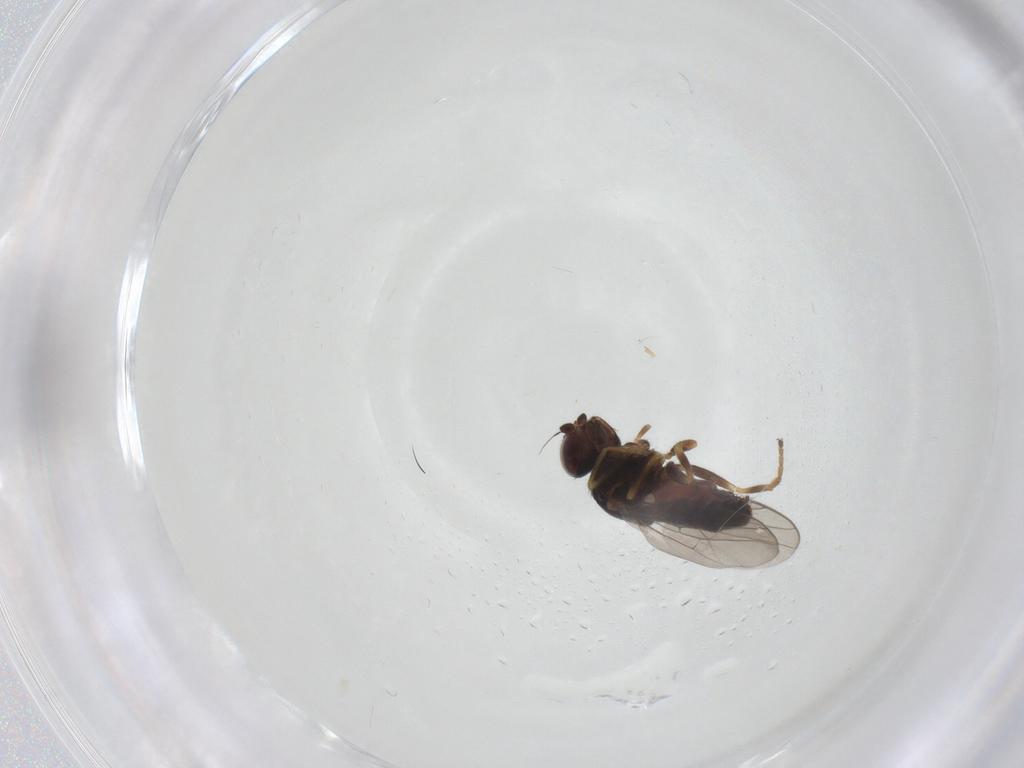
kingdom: Animalia
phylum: Arthropoda
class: Insecta
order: Diptera
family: Chloropidae
